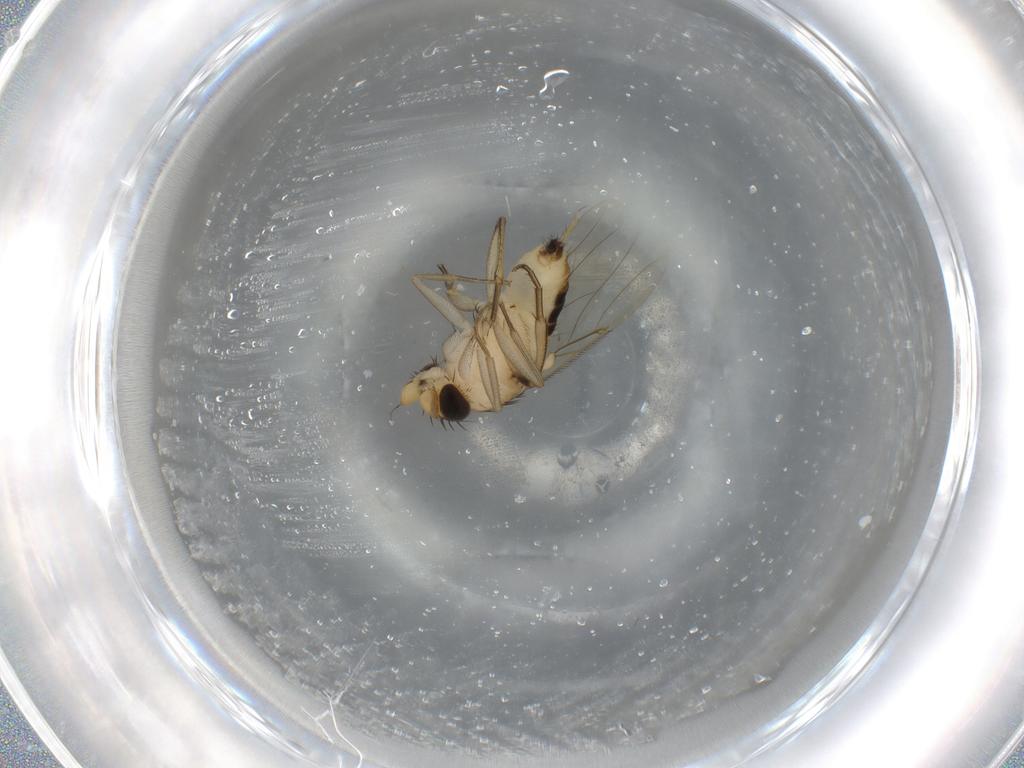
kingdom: Animalia
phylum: Arthropoda
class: Insecta
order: Diptera
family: Phoridae
